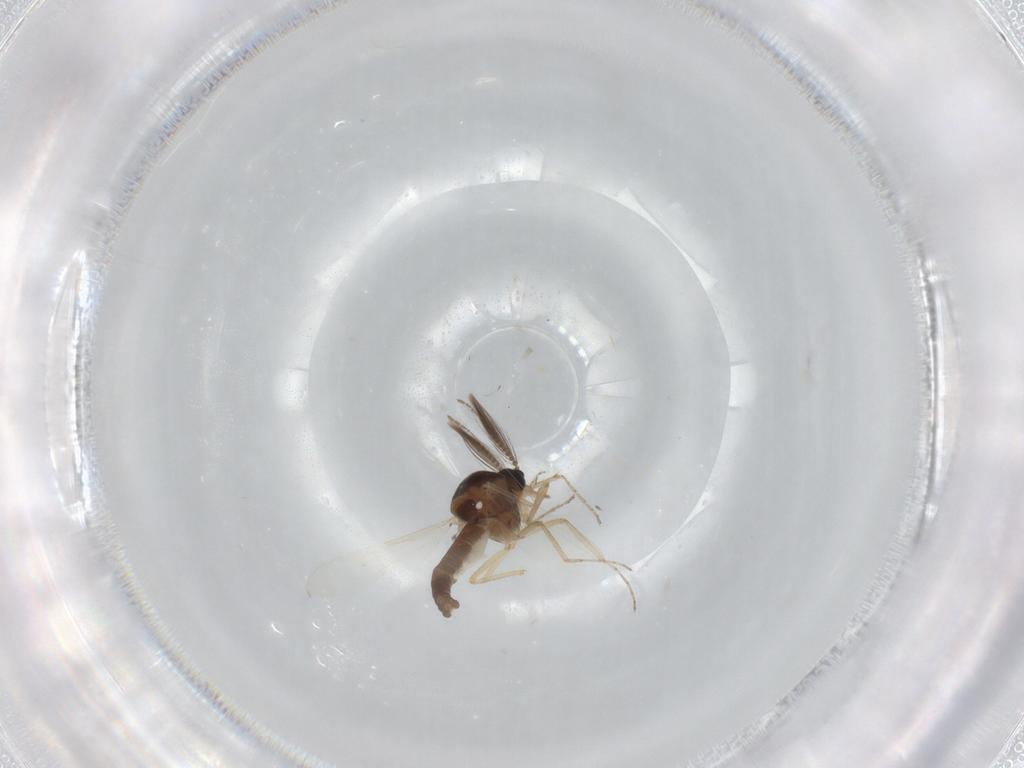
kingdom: Animalia
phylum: Arthropoda
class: Insecta
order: Diptera
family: Ceratopogonidae
